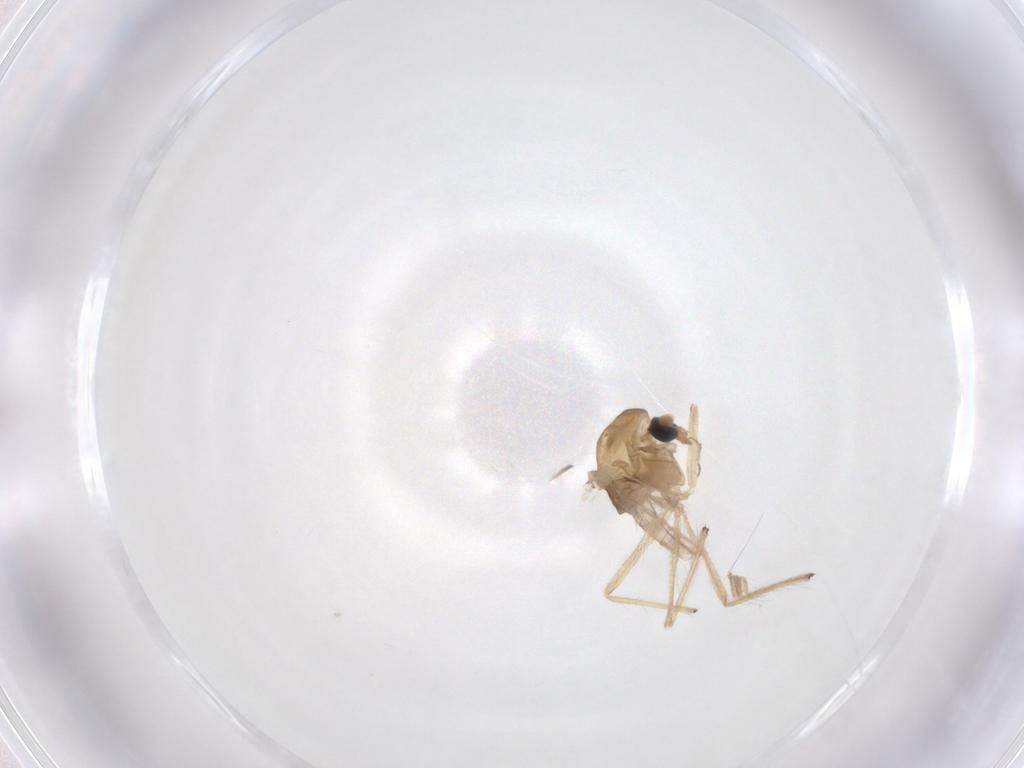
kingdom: Animalia
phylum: Arthropoda
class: Insecta
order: Diptera
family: Chironomidae
